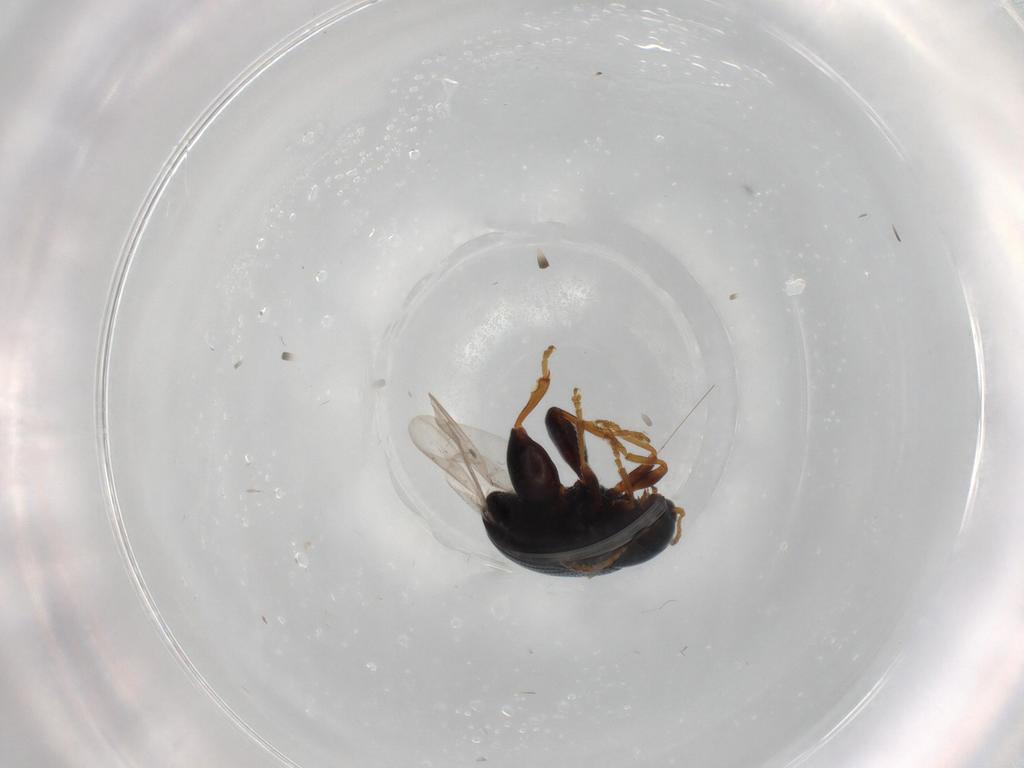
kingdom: Animalia
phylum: Arthropoda
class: Insecta
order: Coleoptera
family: Chrysomelidae
